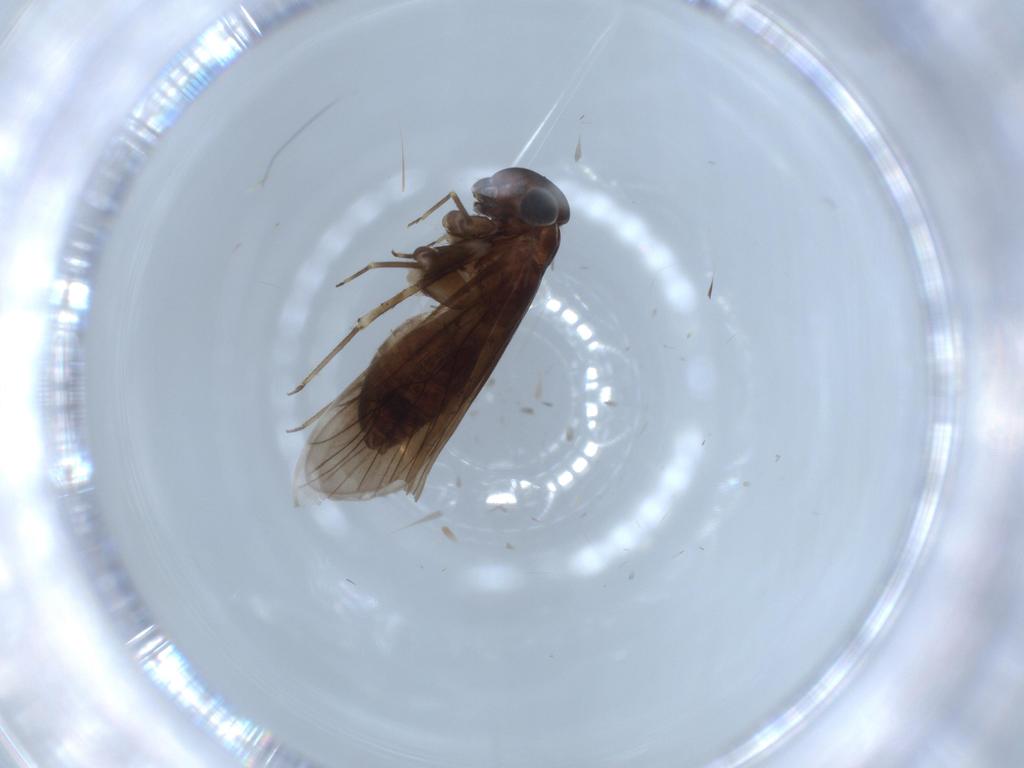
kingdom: Animalia
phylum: Arthropoda
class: Insecta
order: Psocodea
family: Amphientomidae
